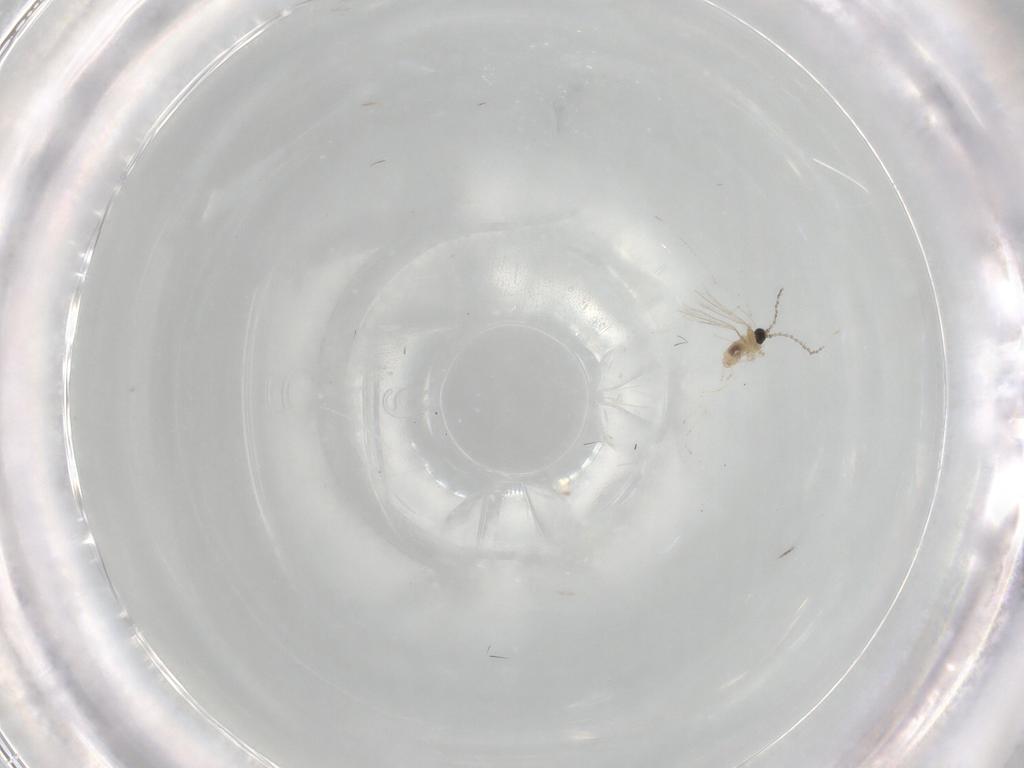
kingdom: Animalia
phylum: Arthropoda
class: Insecta
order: Diptera
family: Cecidomyiidae
